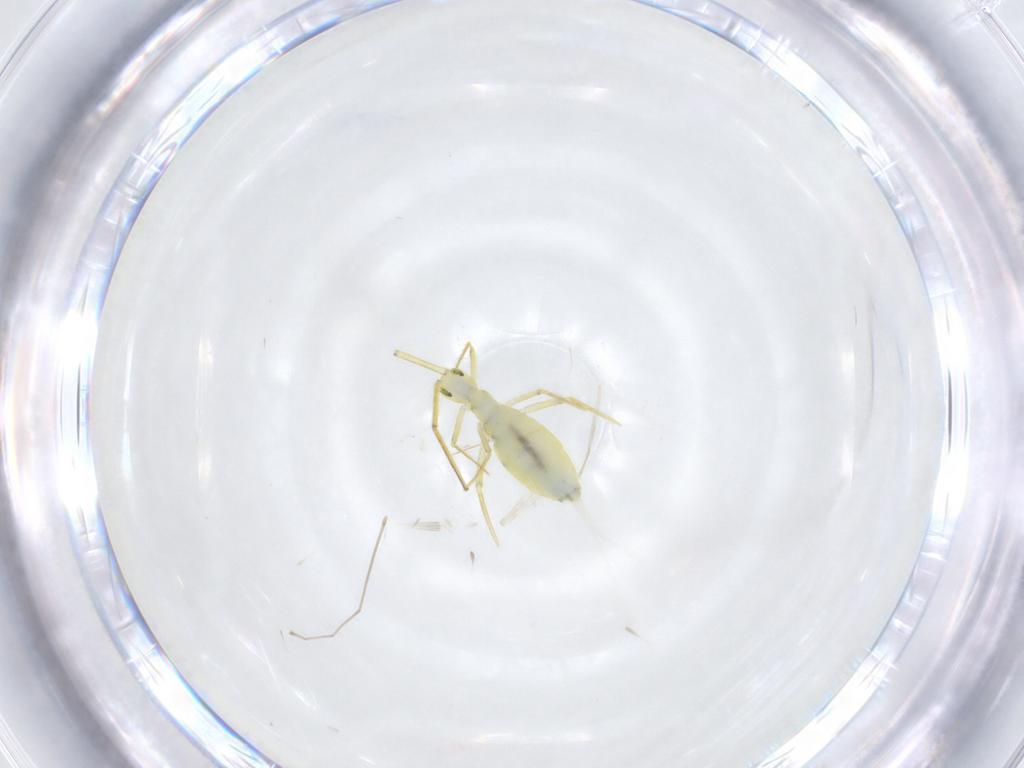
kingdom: Animalia
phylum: Arthropoda
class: Collembola
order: Entomobryomorpha
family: Entomobryidae
